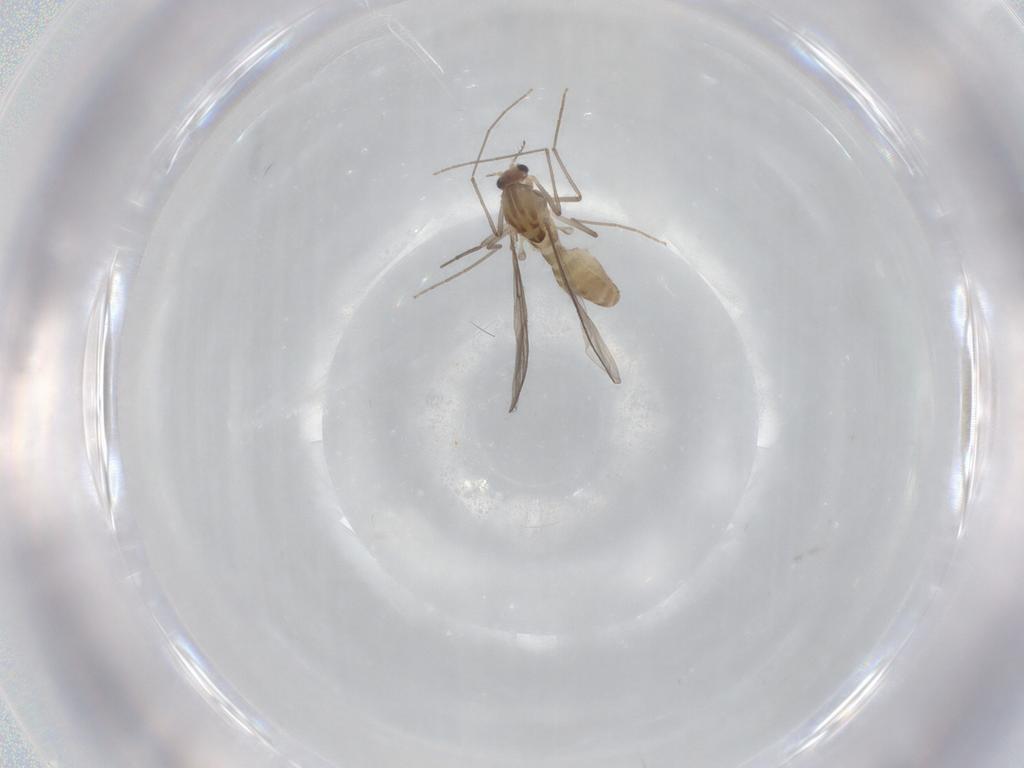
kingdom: Animalia
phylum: Arthropoda
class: Insecta
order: Diptera
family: Chironomidae
